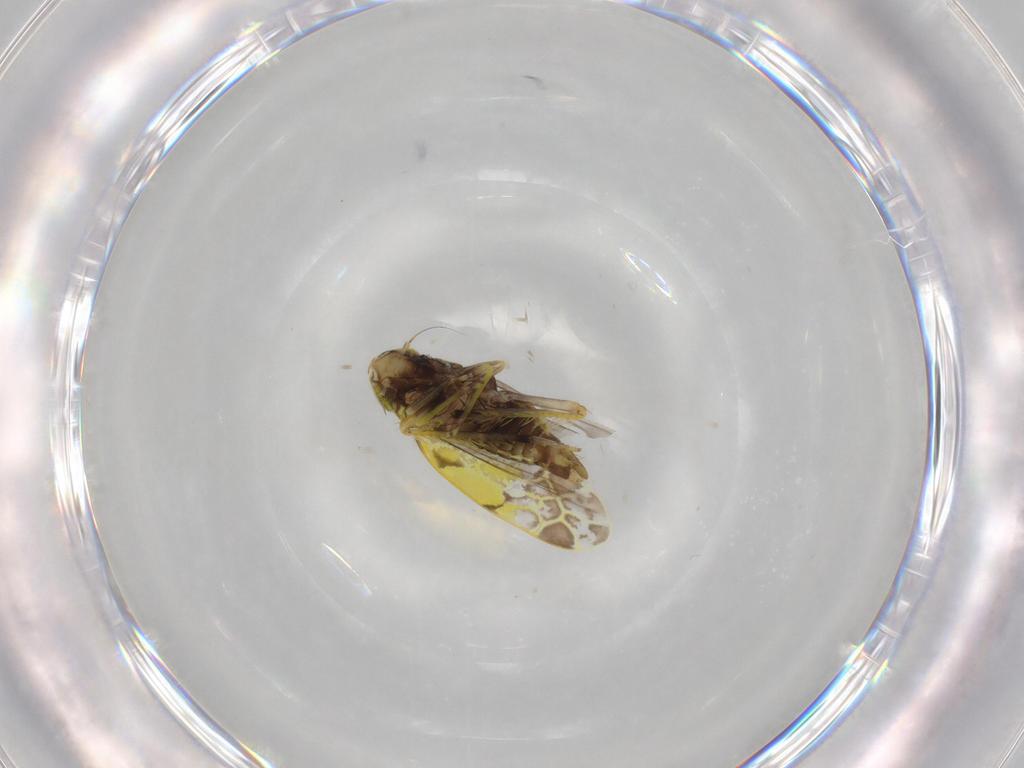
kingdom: Animalia
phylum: Arthropoda
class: Insecta
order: Hemiptera
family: Cicadellidae
